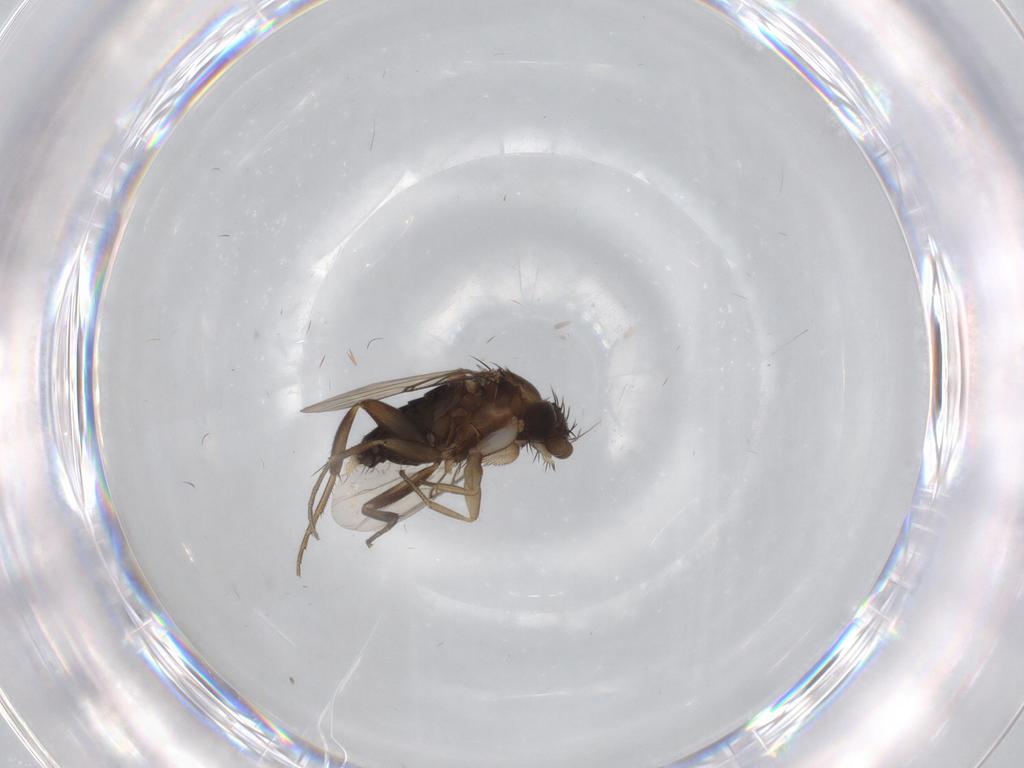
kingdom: Animalia
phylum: Arthropoda
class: Insecta
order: Diptera
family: Phoridae
